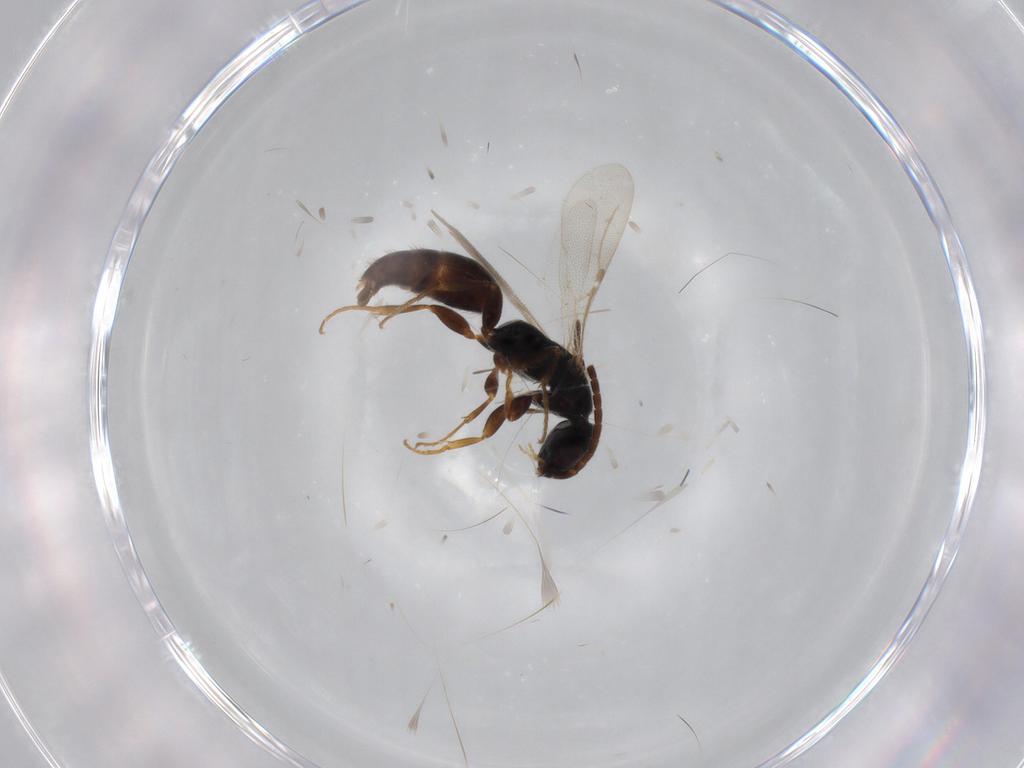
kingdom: Animalia
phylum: Arthropoda
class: Insecta
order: Hymenoptera
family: Bethylidae
